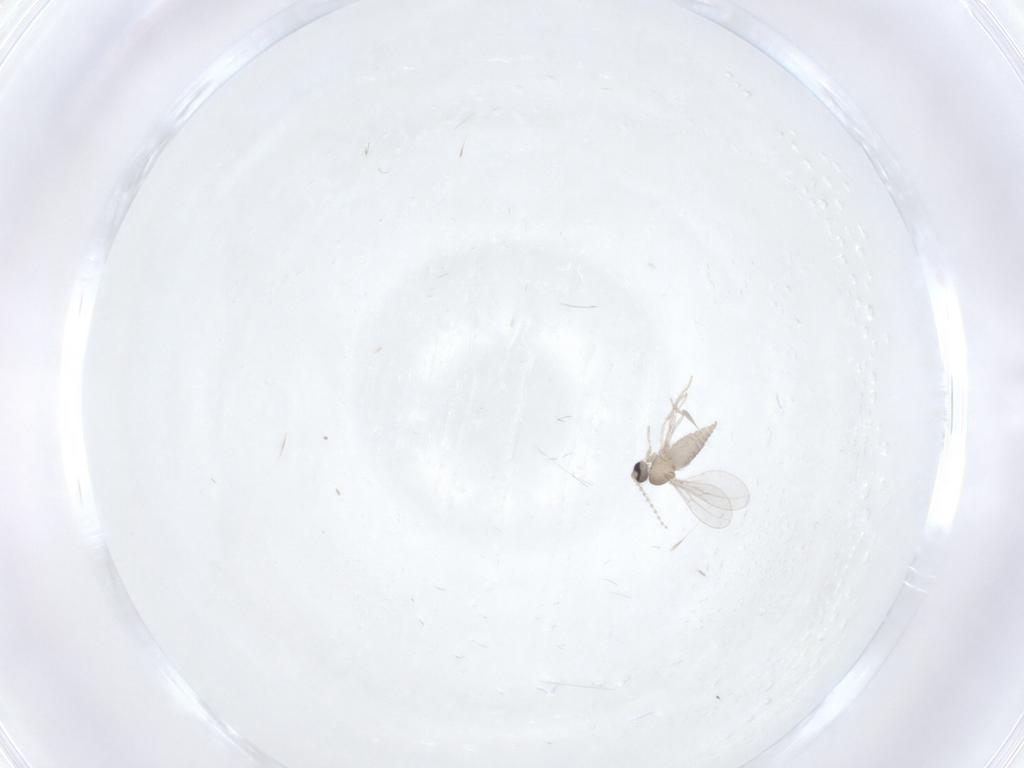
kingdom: Animalia
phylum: Arthropoda
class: Insecta
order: Diptera
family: Cecidomyiidae
